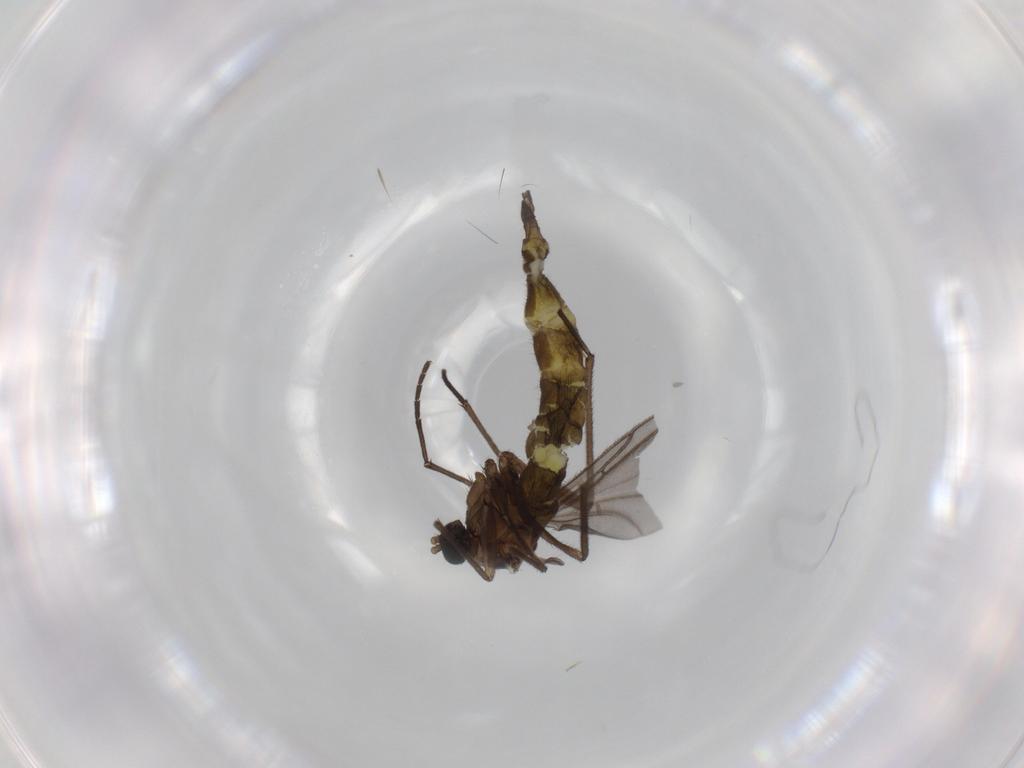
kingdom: Animalia
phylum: Arthropoda
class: Insecta
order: Diptera
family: Sciaridae
